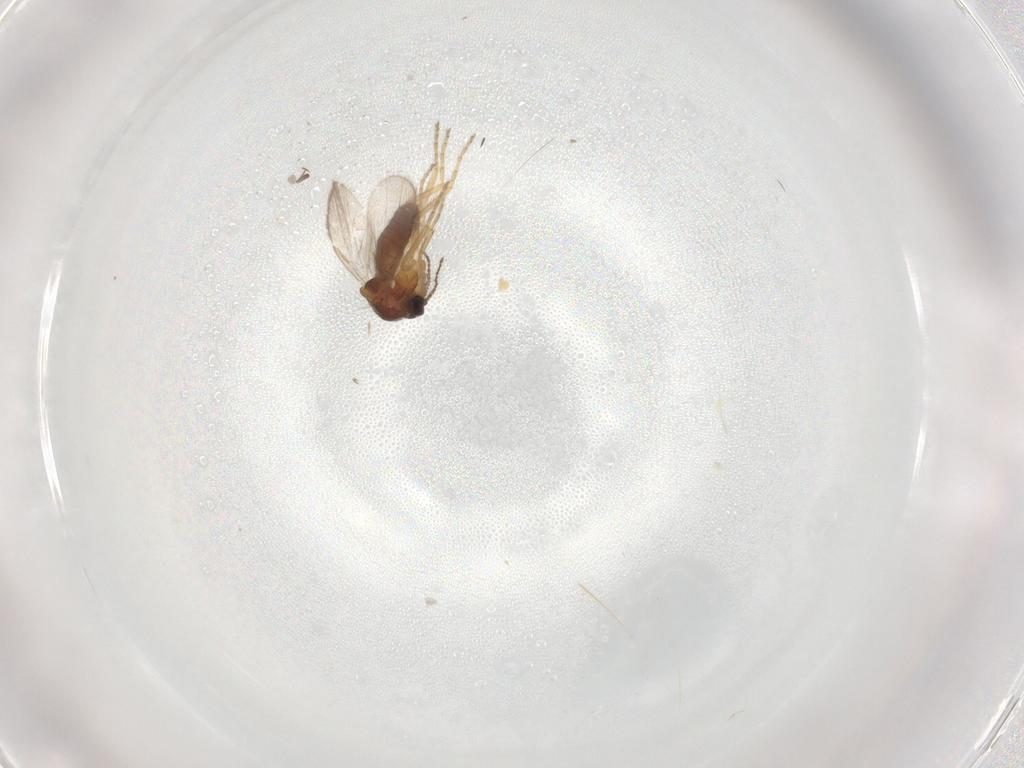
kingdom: Animalia
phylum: Arthropoda
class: Insecta
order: Diptera
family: Ceratopogonidae
